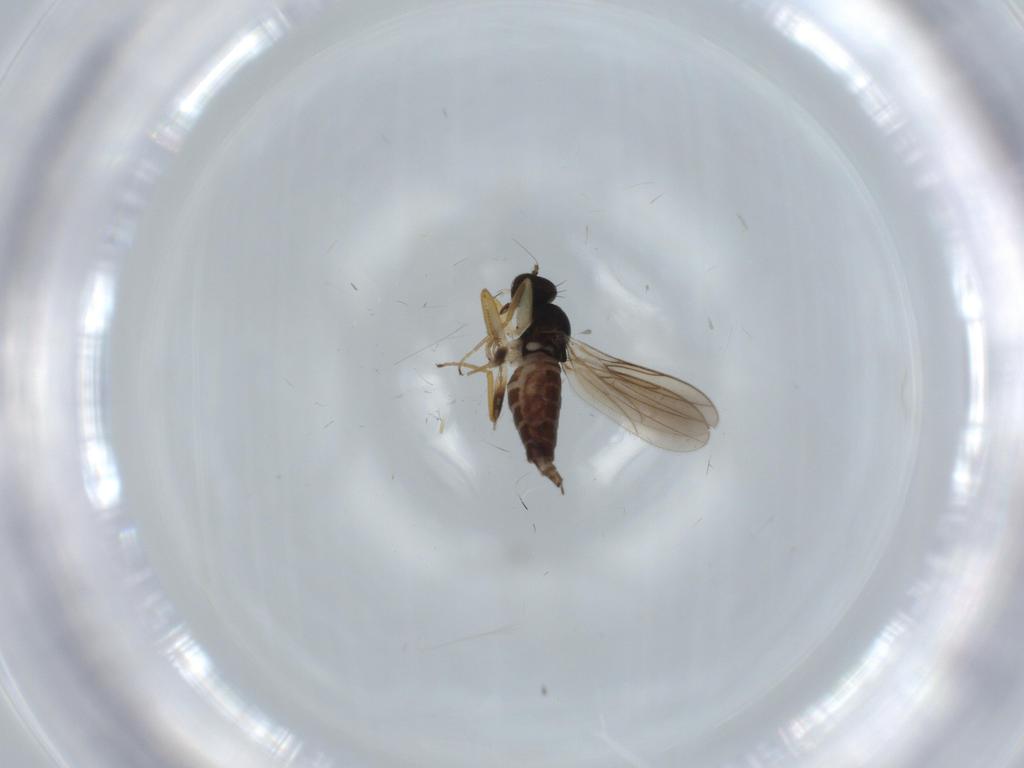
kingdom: Animalia
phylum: Arthropoda
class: Insecta
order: Diptera
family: Hybotidae
